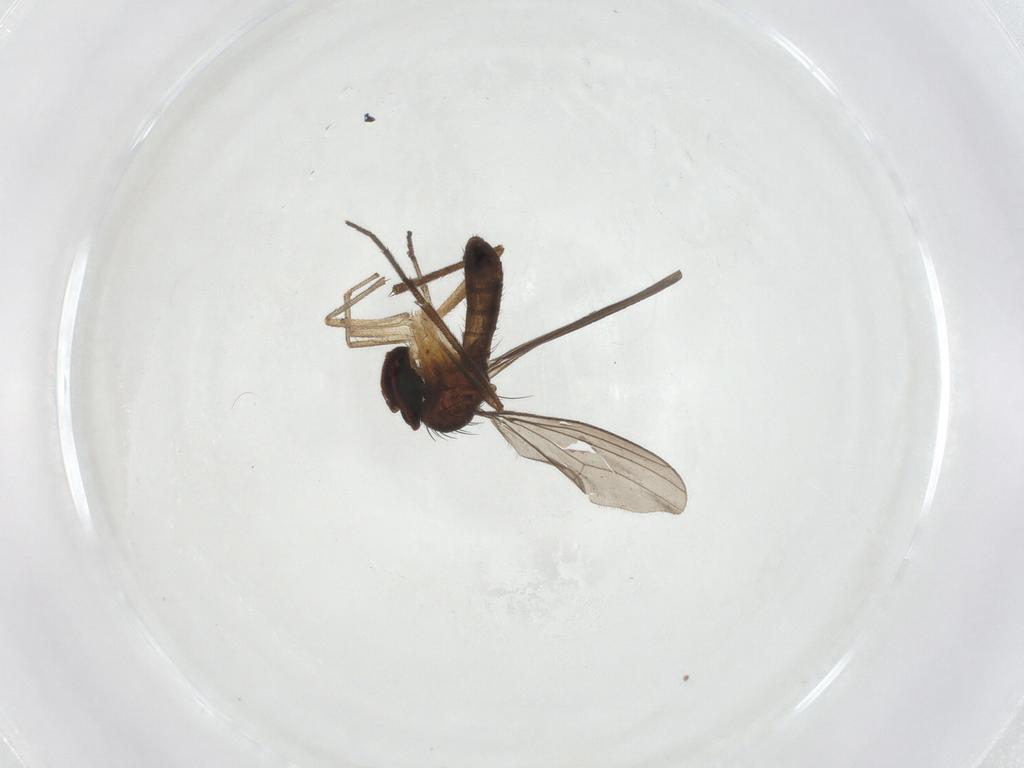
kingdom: Animalia
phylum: Arthropoda
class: Insecta
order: Diptera
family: Dolichopodidae
